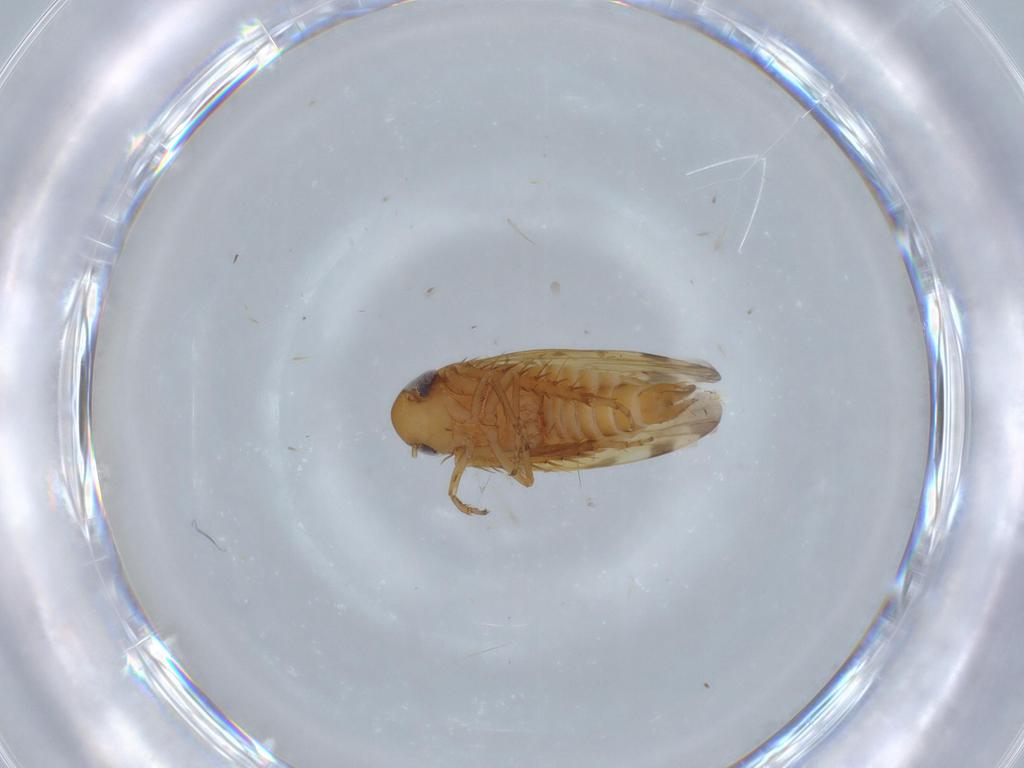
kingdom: Animalia
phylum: Arthropoda
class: Insecta
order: Hemiptera
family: Cicadellidae
